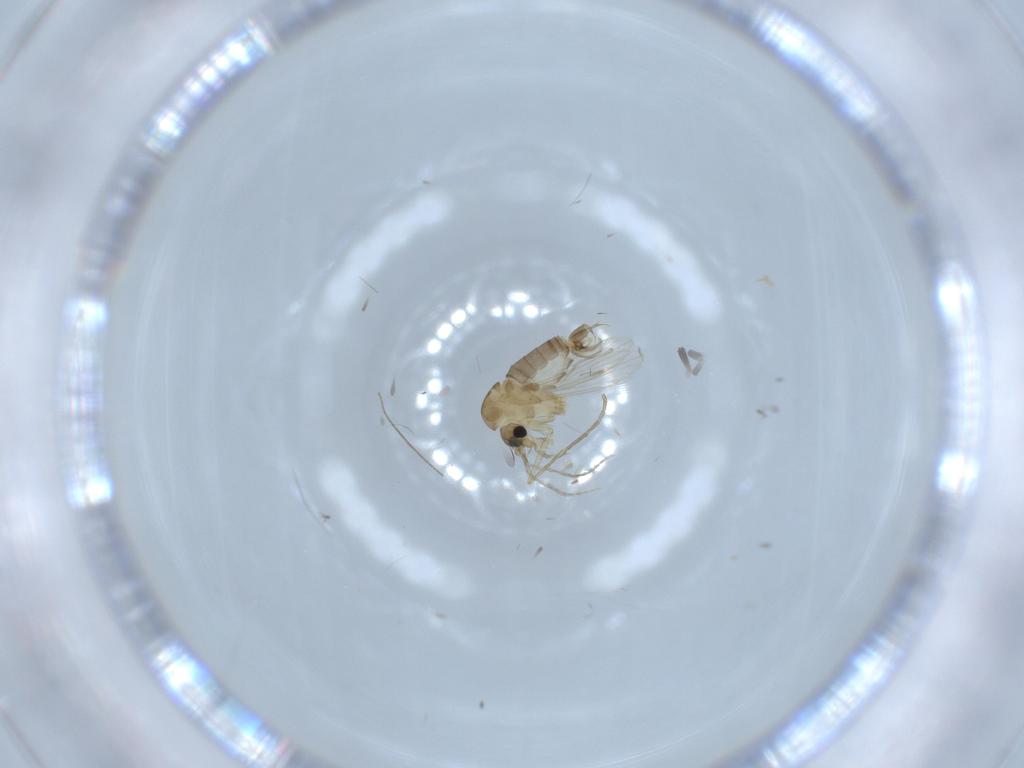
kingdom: Animalia
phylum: Arthropoda
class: Insecta
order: Diptera
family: Psychodidae
